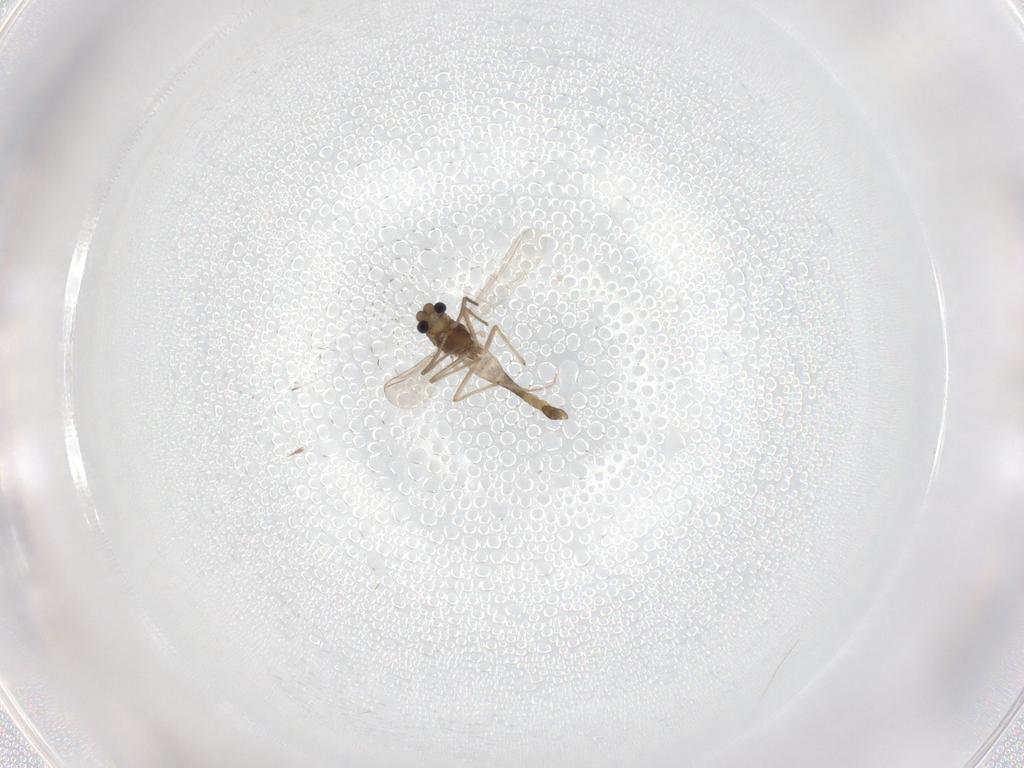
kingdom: Animalia
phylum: Arthropoda
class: Insecta
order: Diptera
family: Chironomidae
